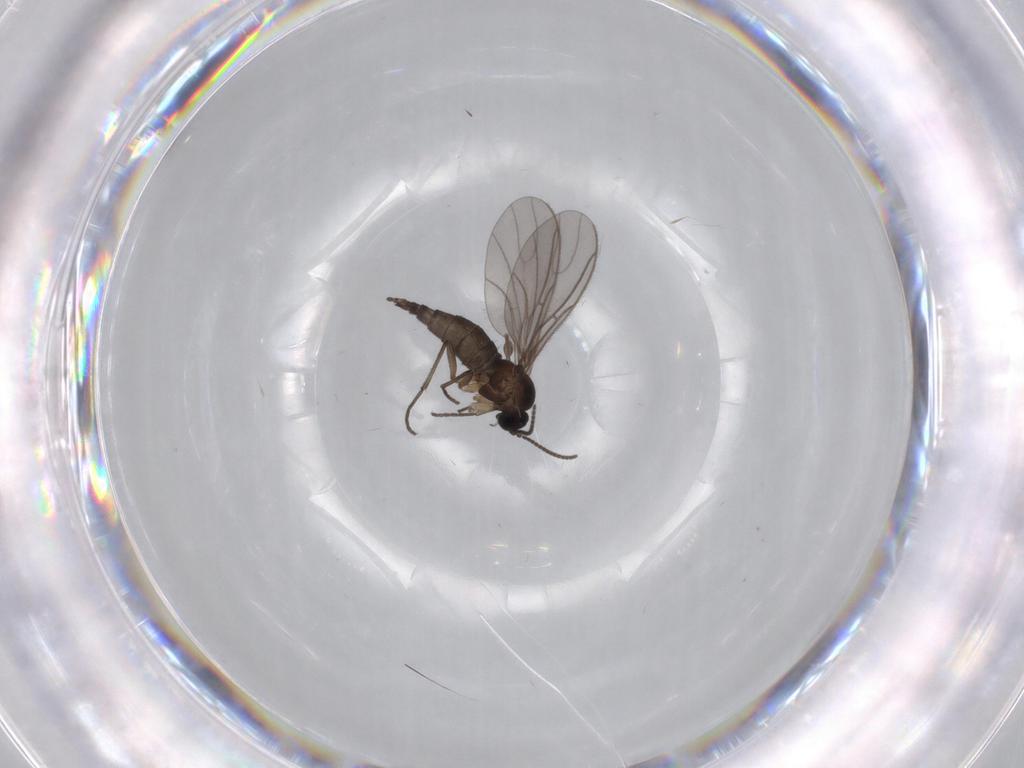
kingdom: Animalia
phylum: Arthropoda
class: Insecta
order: Diptera
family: Sciaridae
